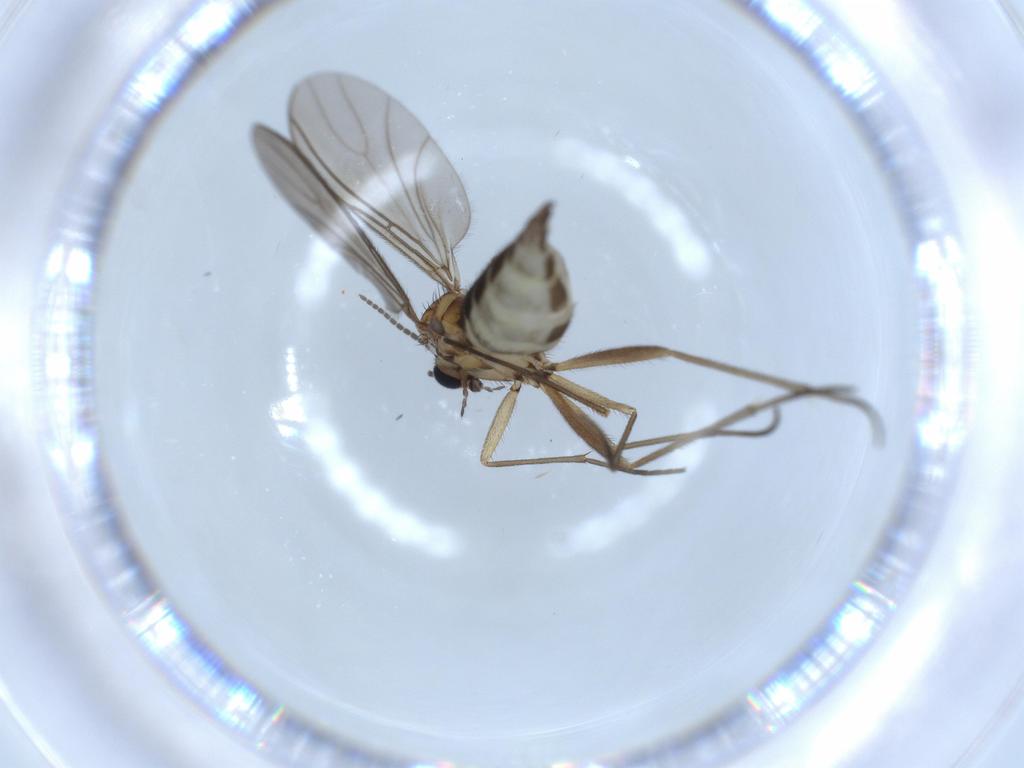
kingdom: Animalia
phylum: Arthropoda
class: Insecta
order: Diptera
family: Sciaridae
